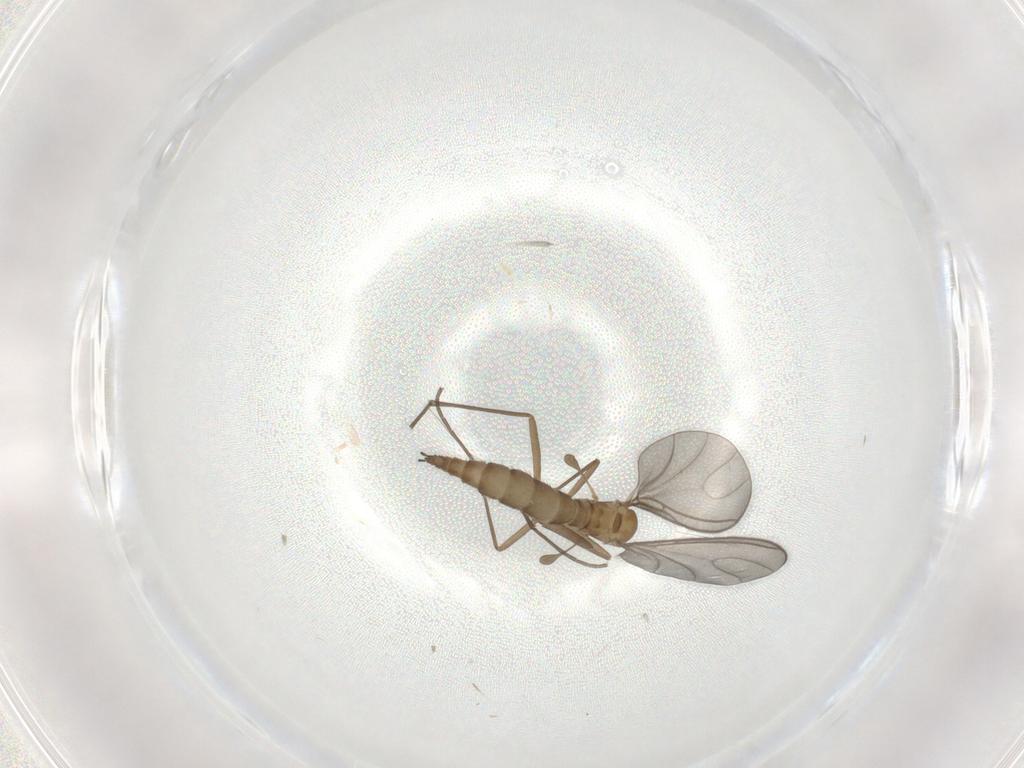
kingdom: Animalia
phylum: Arthropoda
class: Insecta
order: Diptera
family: Sciaridae
